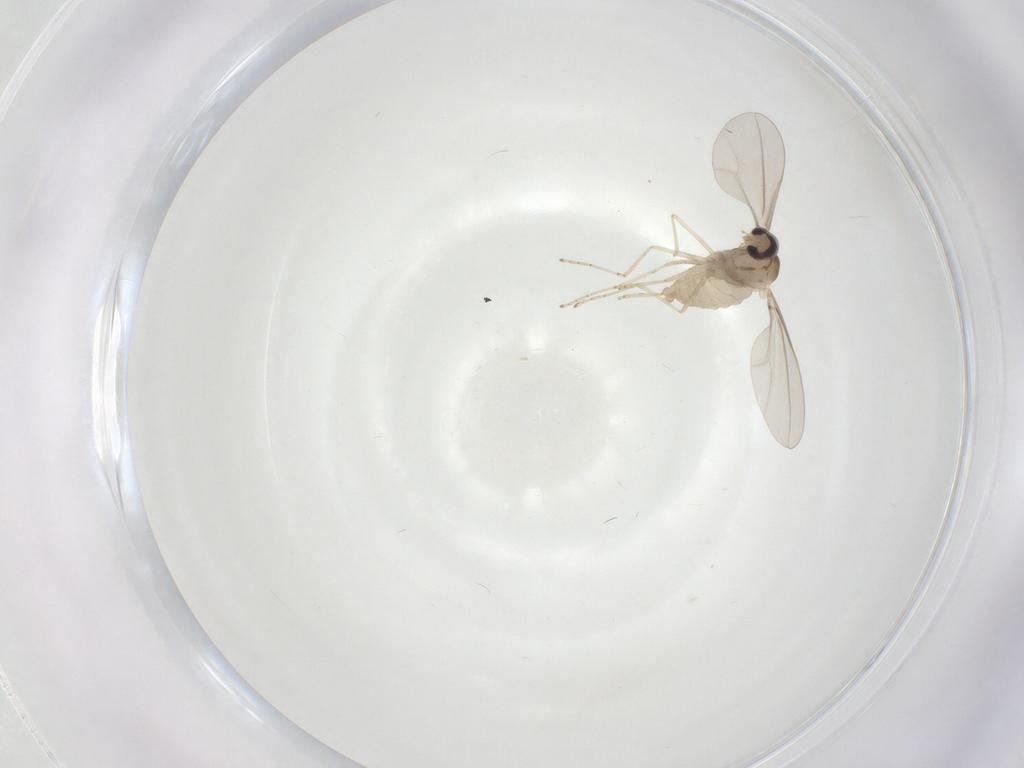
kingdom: Animalia
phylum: Arthropoda
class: Insecta
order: Diptera
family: Cecidomyiidae
